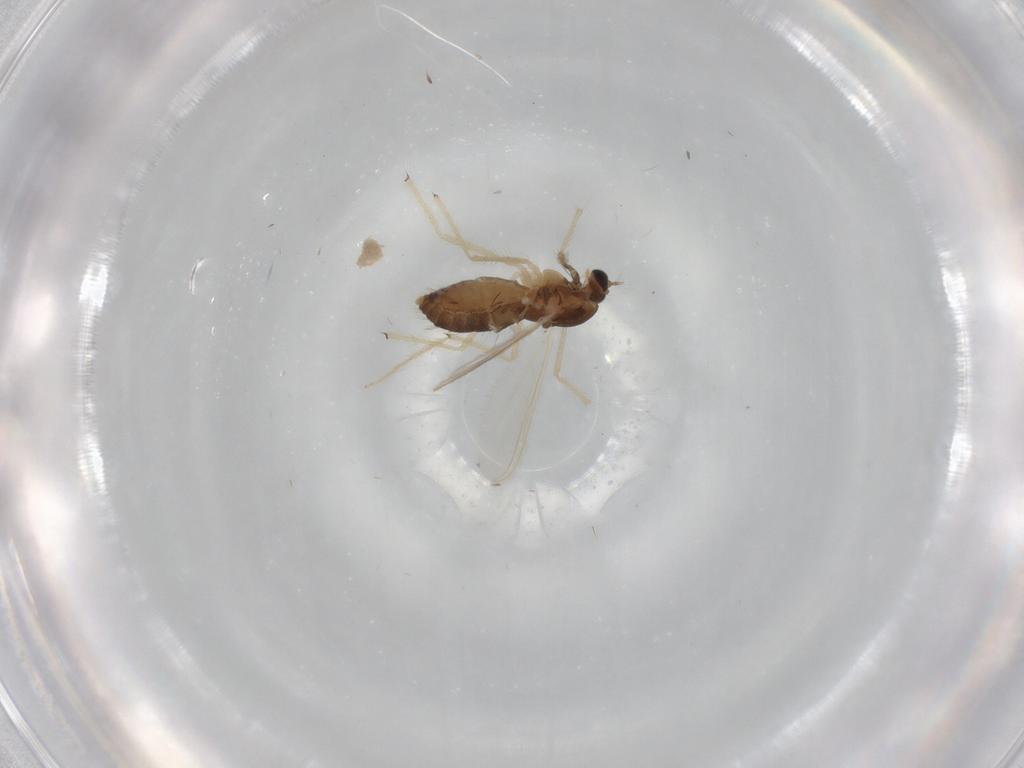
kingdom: Animalia
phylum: Arthropoda
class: Insecta
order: Diptera
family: Chironomidae
